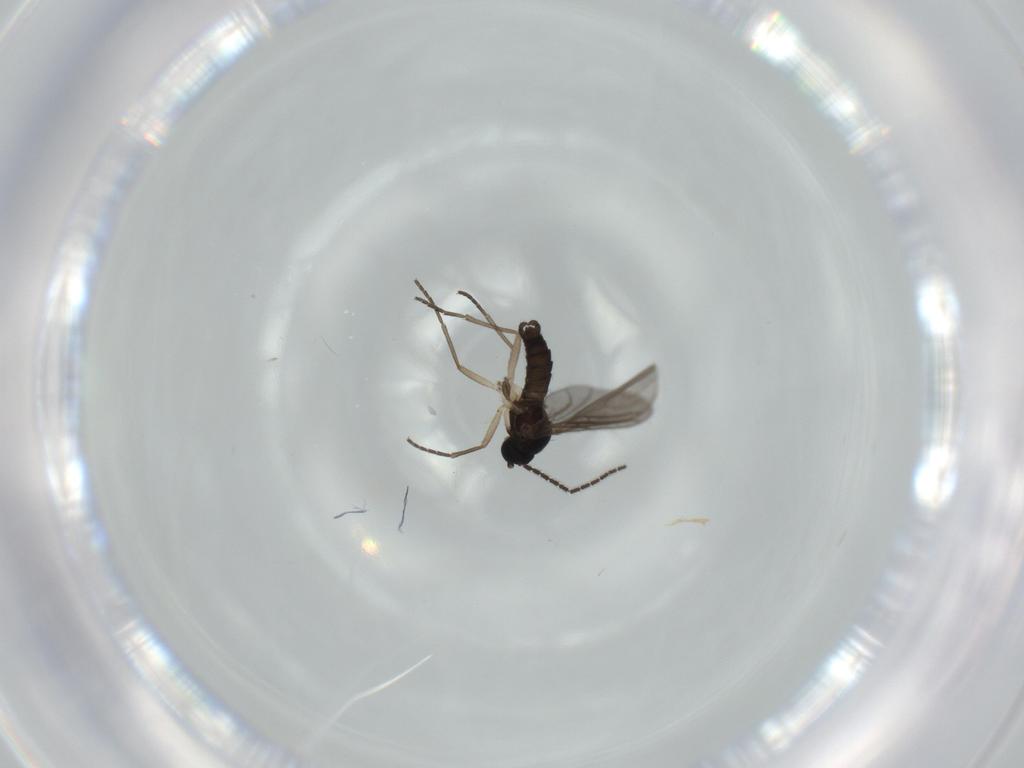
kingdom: Animalia
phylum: Arthropoda
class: Insecta
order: Diptera
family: Sciaridae
